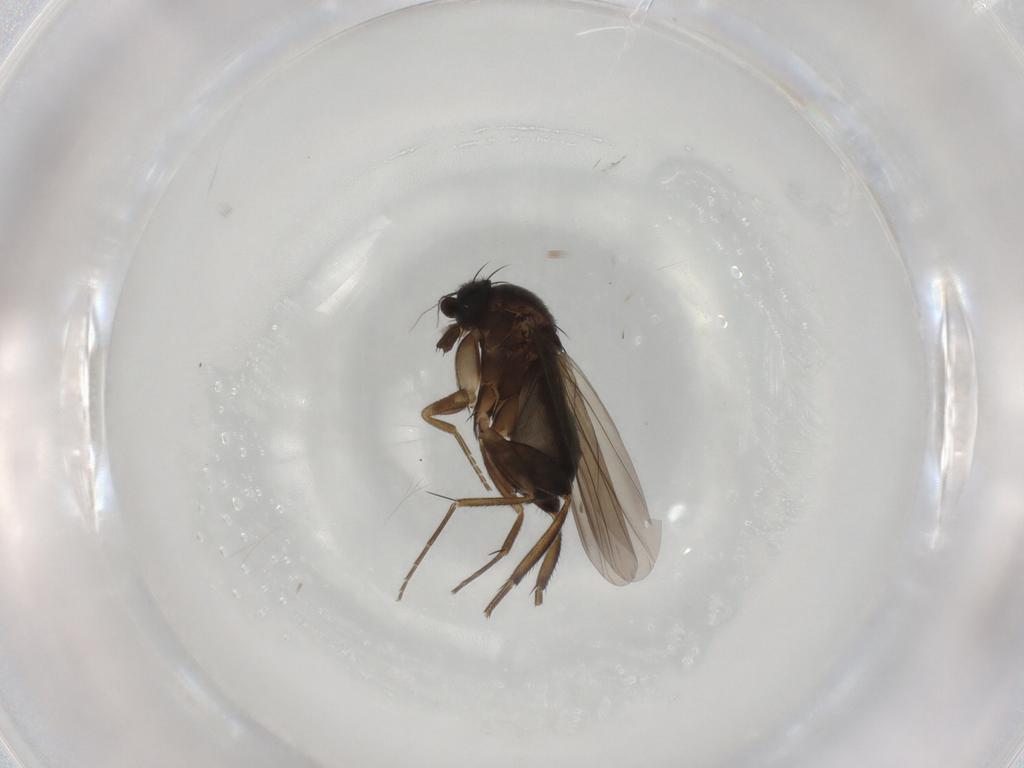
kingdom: Animalia
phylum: Arthropoda
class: Insecta
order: Diptera
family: Phoridae
